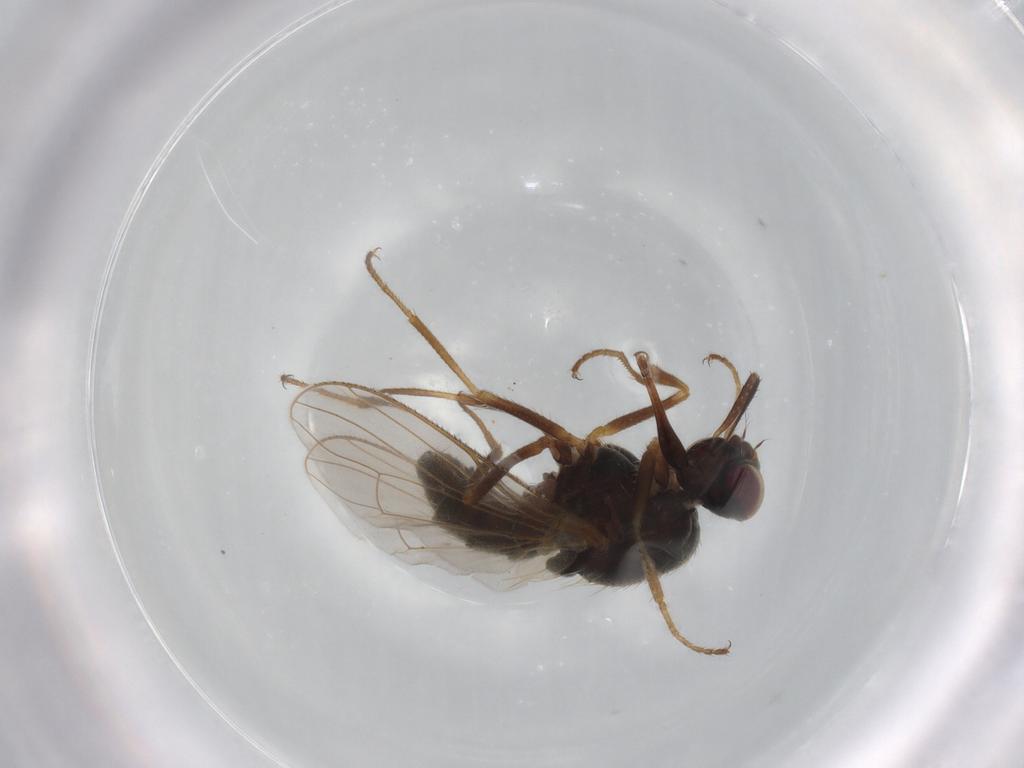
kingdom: Animalia
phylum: Arthropoda
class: Insecta
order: Diptera
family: Muscidae
